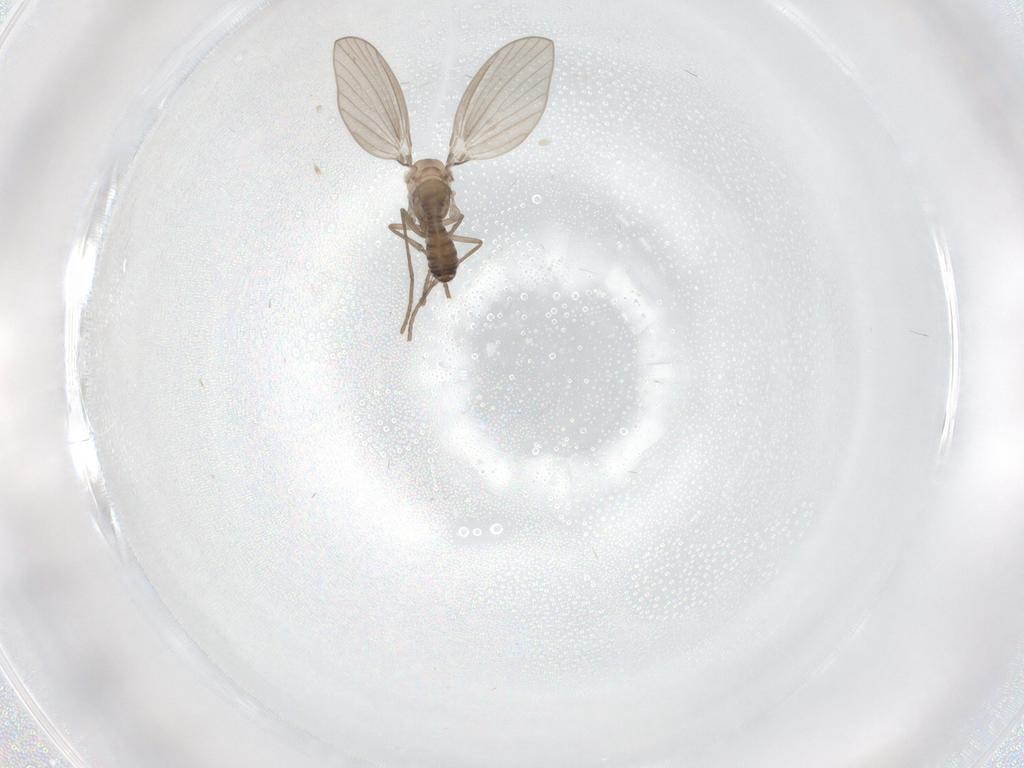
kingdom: Animalia
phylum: Arthropoda
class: Insecta
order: Diptera
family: Psychodidae
